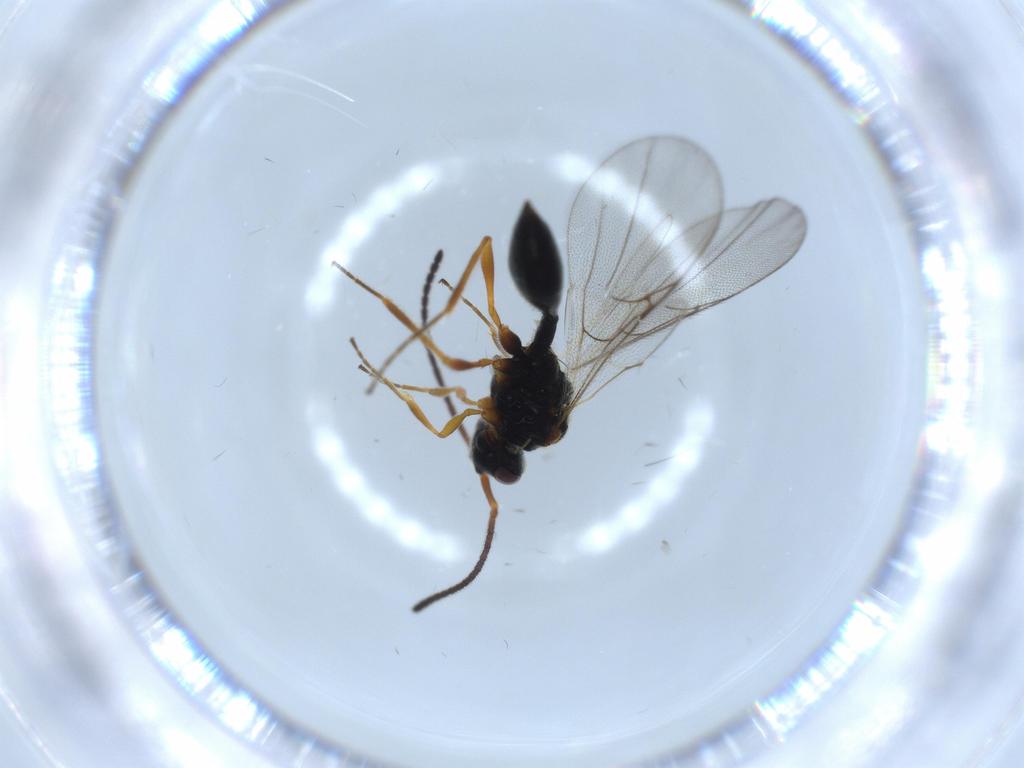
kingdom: Animalia
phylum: Arthropoda
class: Insecta
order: Hymenoptera
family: Diapriidae
